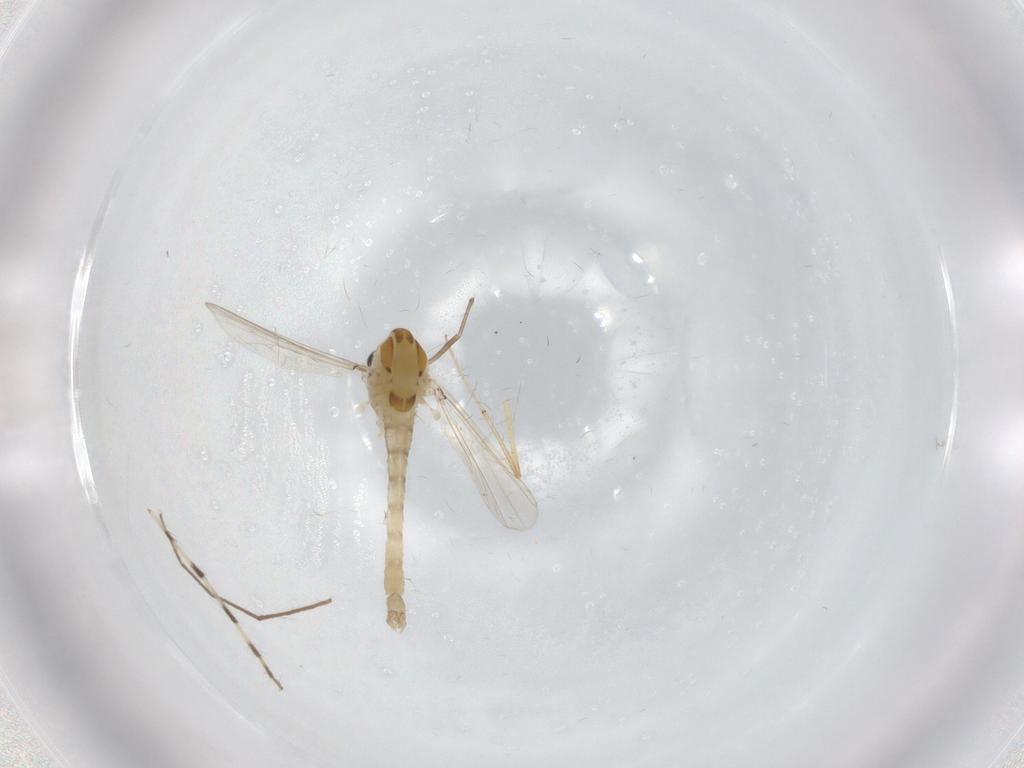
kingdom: Animalia
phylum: Arthropoda
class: Insecta
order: Diptera
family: Chironomidae
